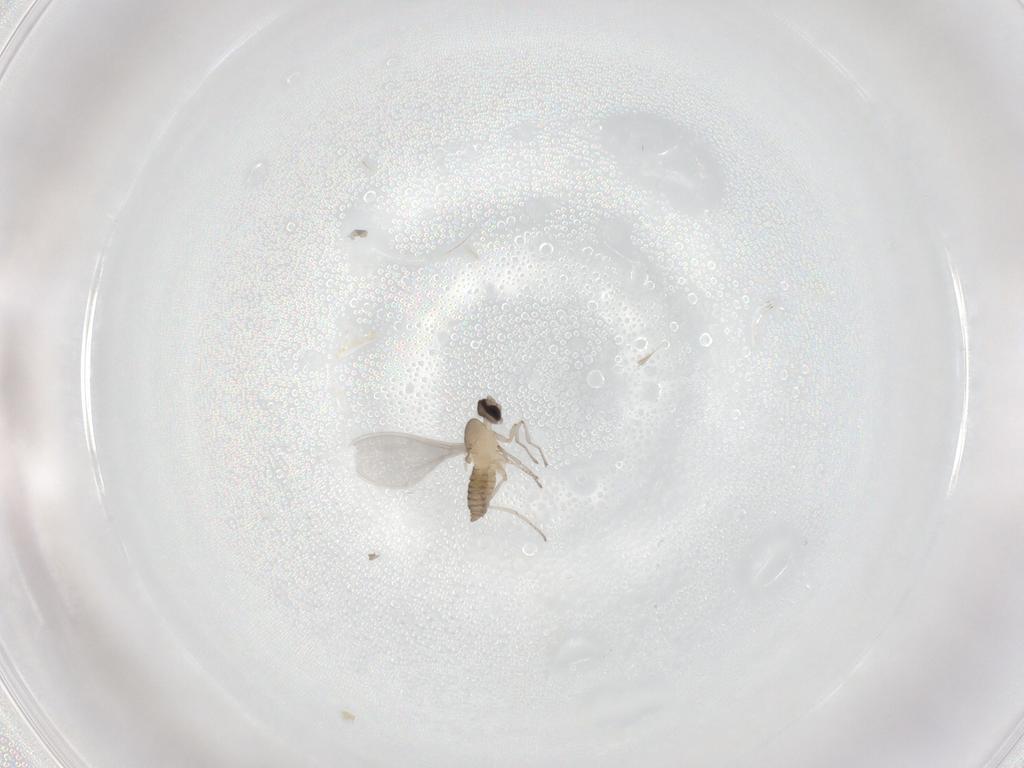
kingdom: Animalia
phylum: Arthropoda
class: Insecta
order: Diptera
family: Cecidomyiidae
